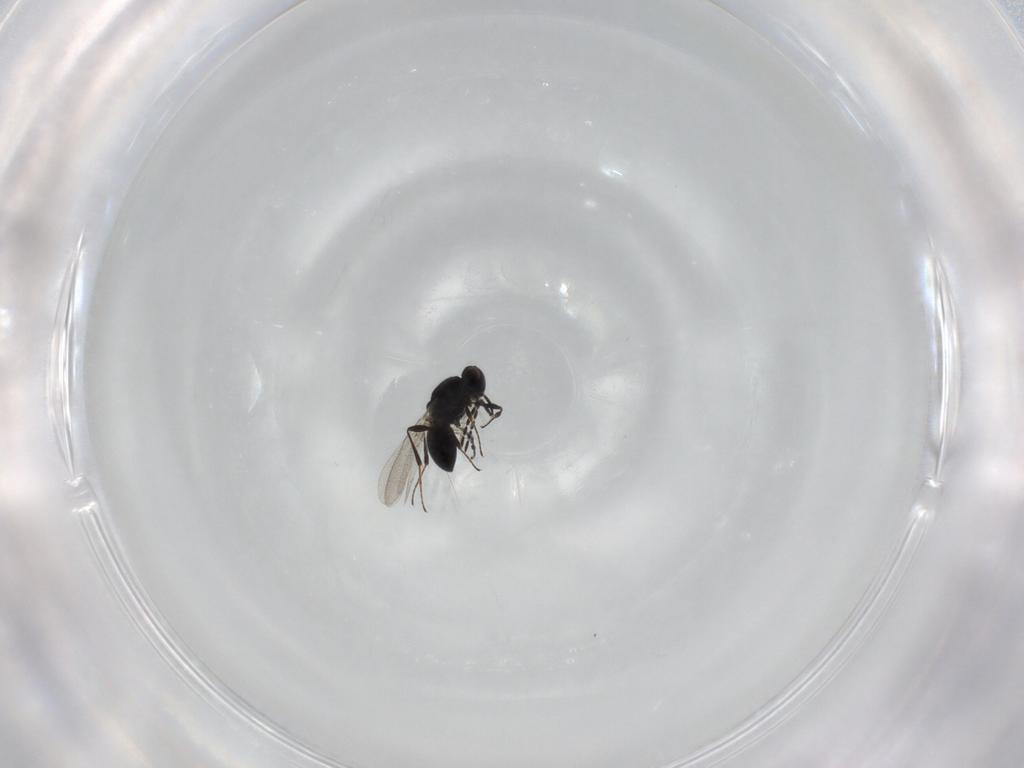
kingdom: Animalia
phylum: Arthropoda
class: Insecta
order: Hymenoptera
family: Platygastridae
